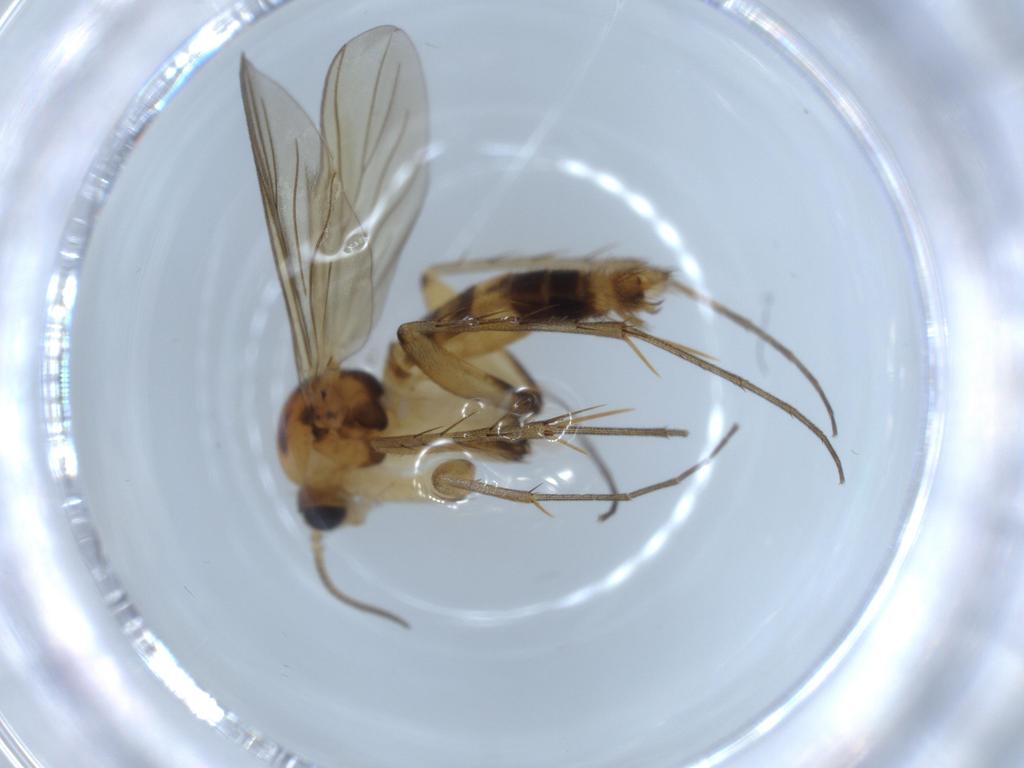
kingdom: Animalia
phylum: Arthropoda
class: Insecta
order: Diptera
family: Mycetophilidae
